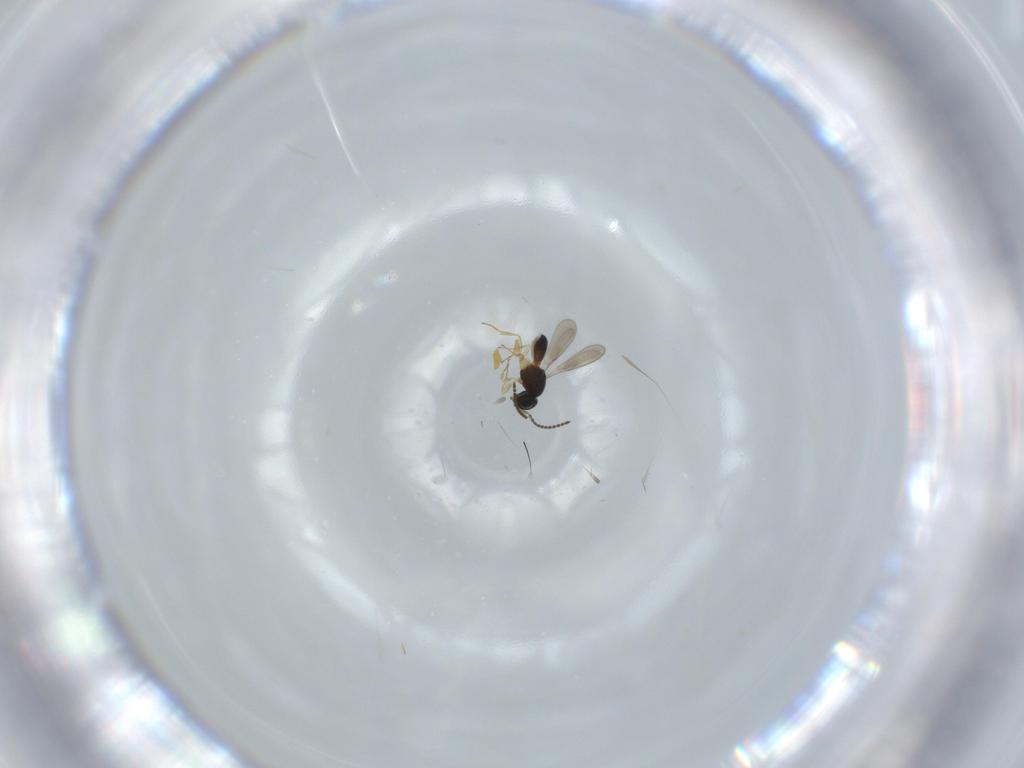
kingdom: Animalia
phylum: Arthropoda
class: Insecta
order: Hymenoptera
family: Scelionidae
